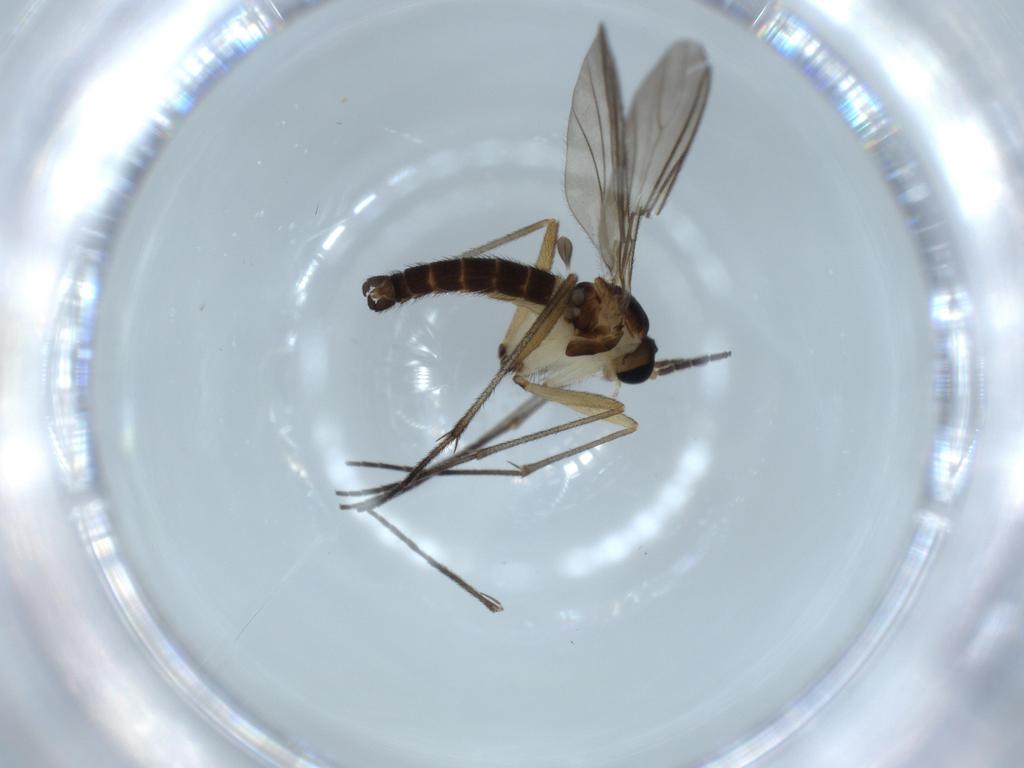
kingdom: Animalia
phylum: Arthropoda
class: Insecta
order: Diptera
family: Sciaridae
